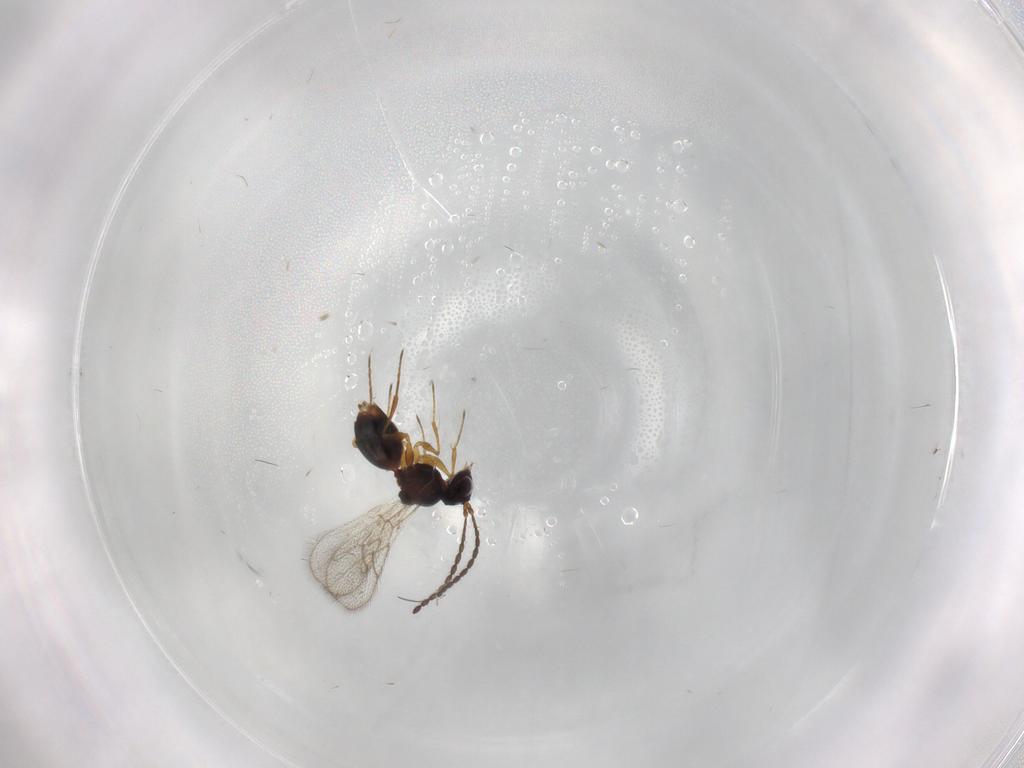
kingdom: Animalia
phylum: Arthropoda
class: Insecta
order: Hymenoptera
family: Figitidae
